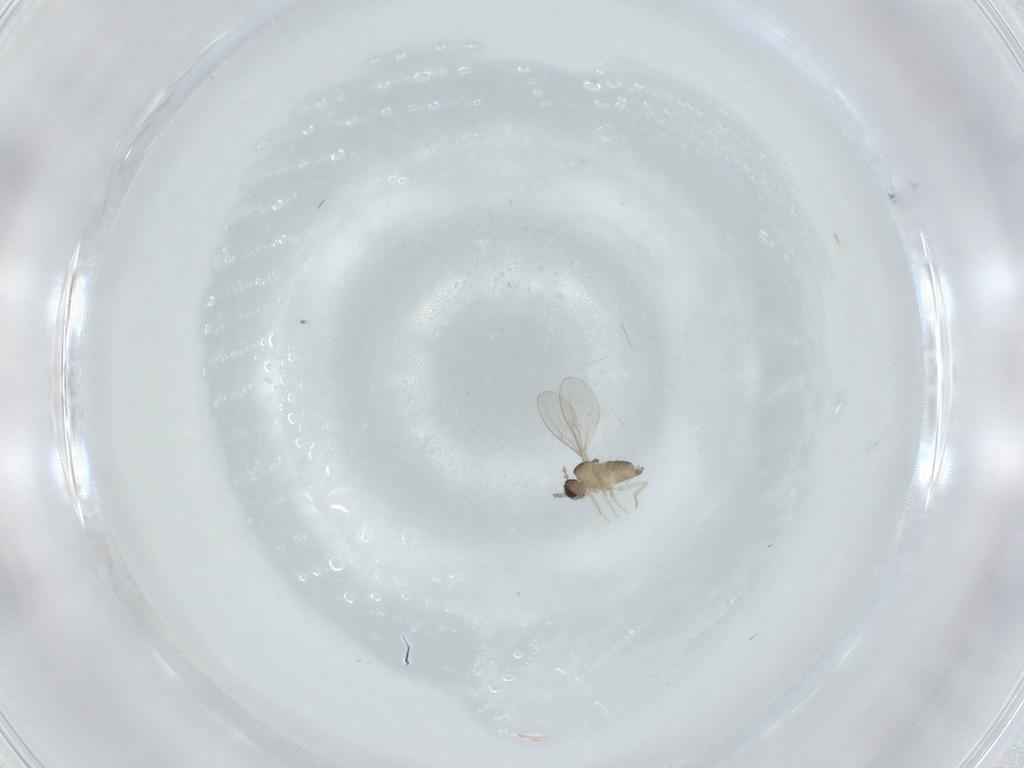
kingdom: Animalia
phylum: Arthropoda
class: Insecta
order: Diptera
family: Cecidomyiidae
